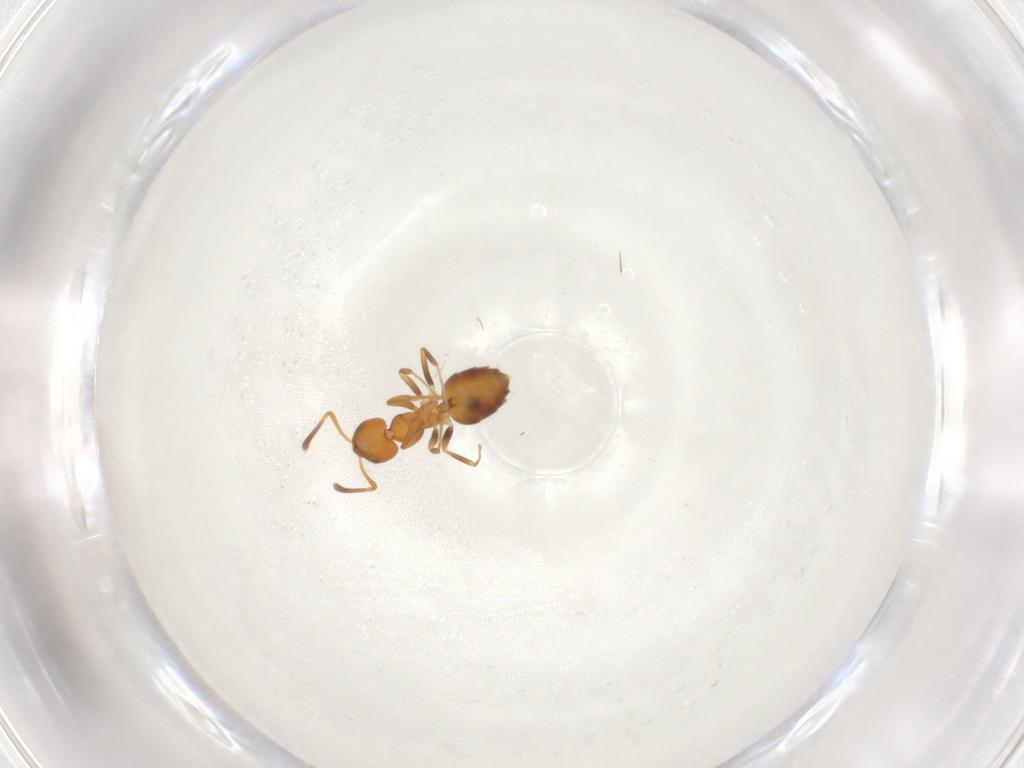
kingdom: Animalia
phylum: Arthropoda
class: Insecta
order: Hymenoptera
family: Formicidae
